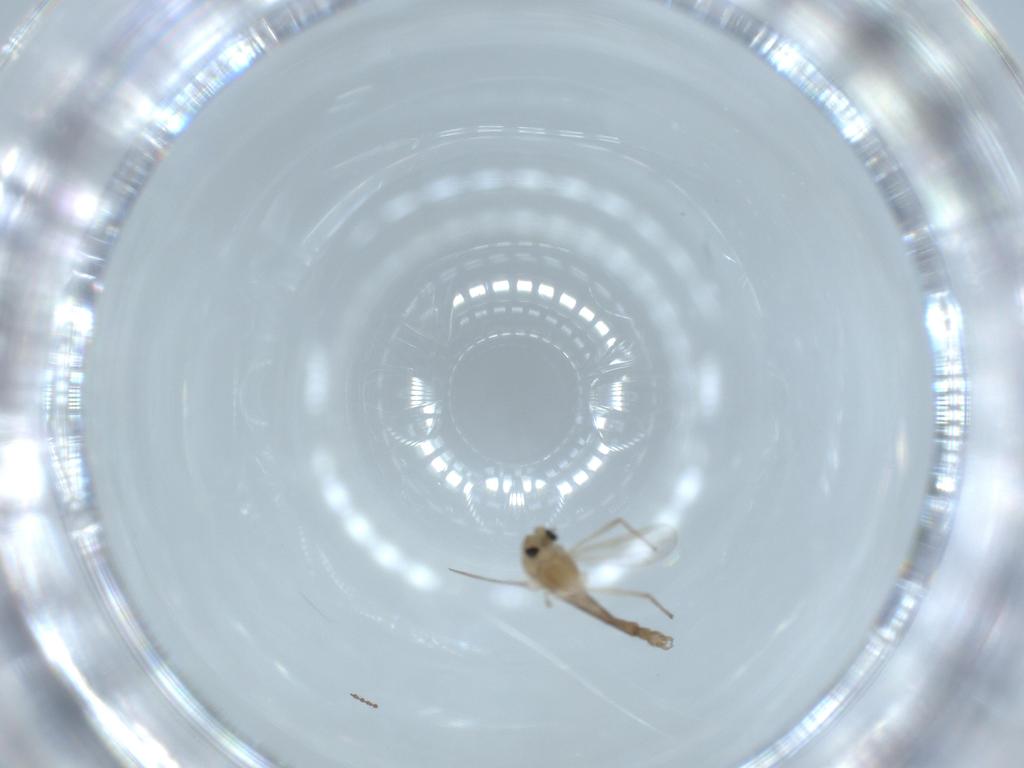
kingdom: Animalia
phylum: Arthropoda
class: Insecta
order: Diptera
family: Chironomidae
